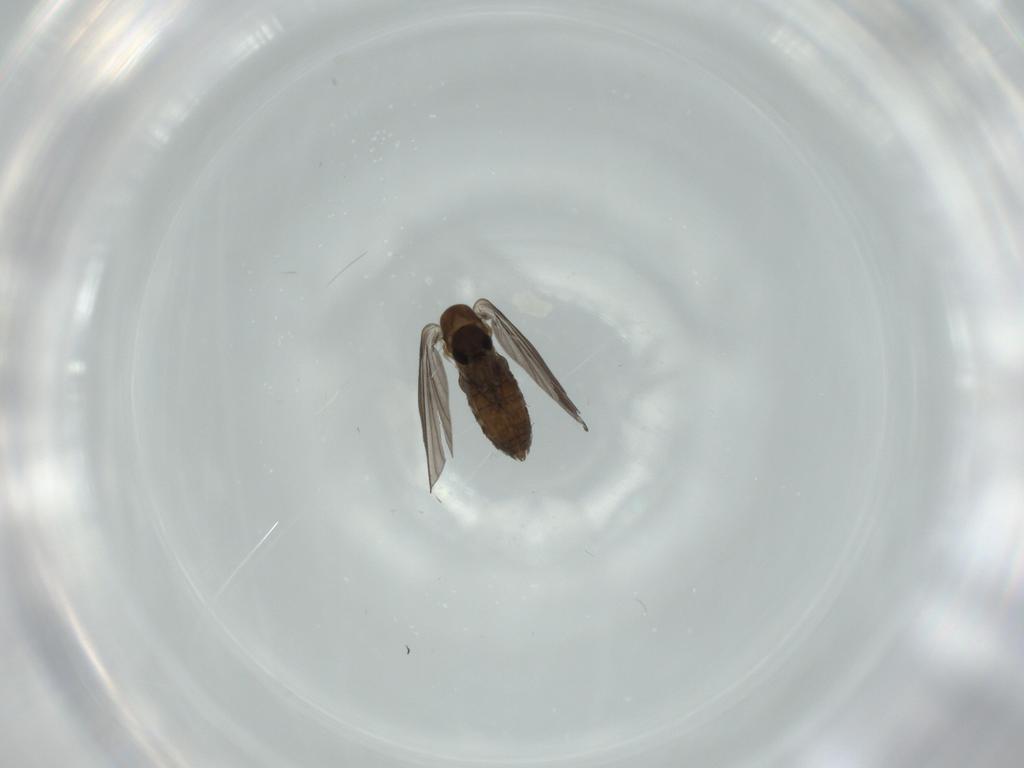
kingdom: Animalia
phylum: Arthropoda
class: Insecta
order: Diptera
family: Psychodidae
